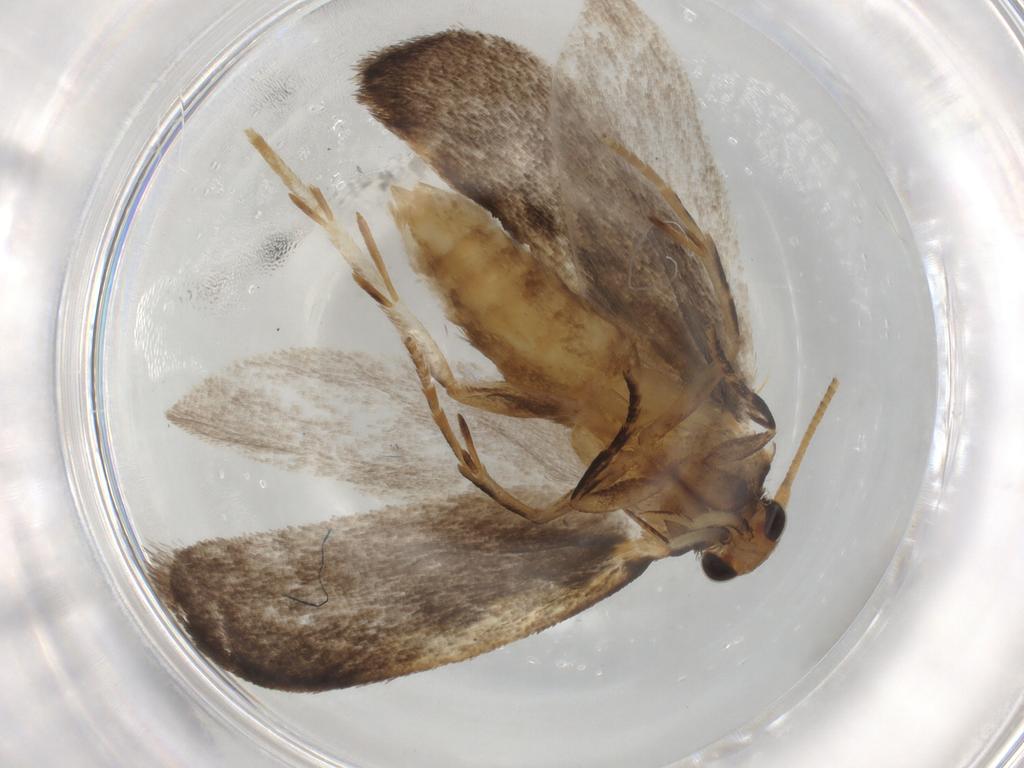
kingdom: Animalia
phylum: Arthropoda
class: Insecta
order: Lepidoptera
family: Oecophoridae
